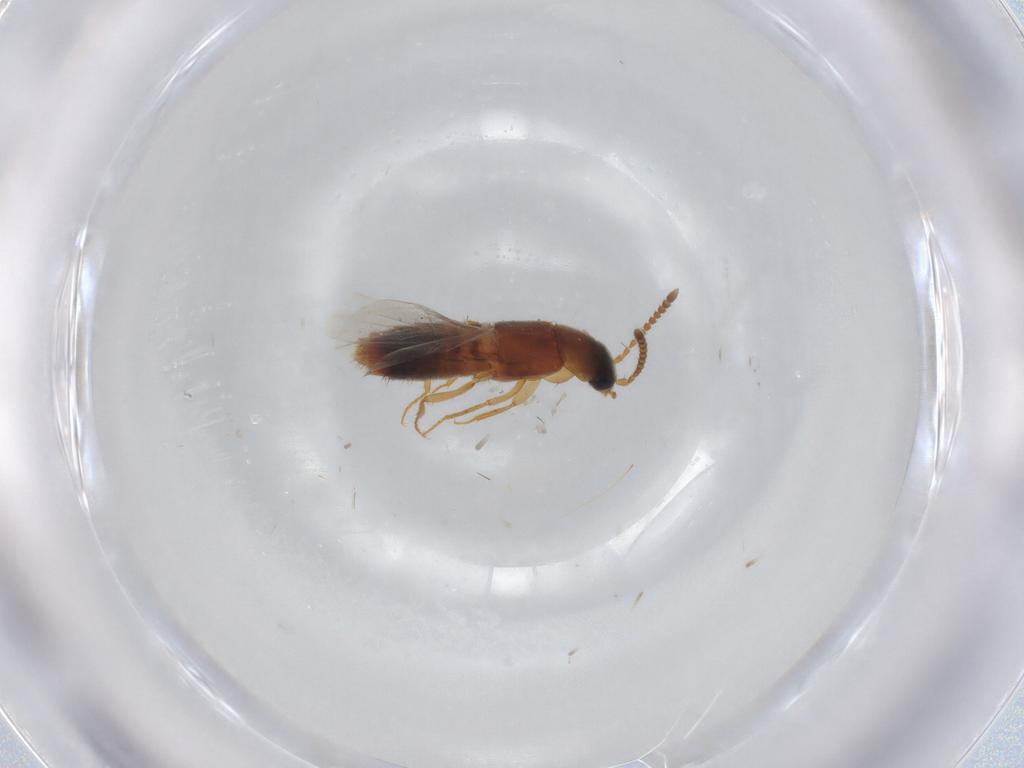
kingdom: Animalia
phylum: Arthropoda
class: Insecta
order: Coleoptera
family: Staphylinidae
